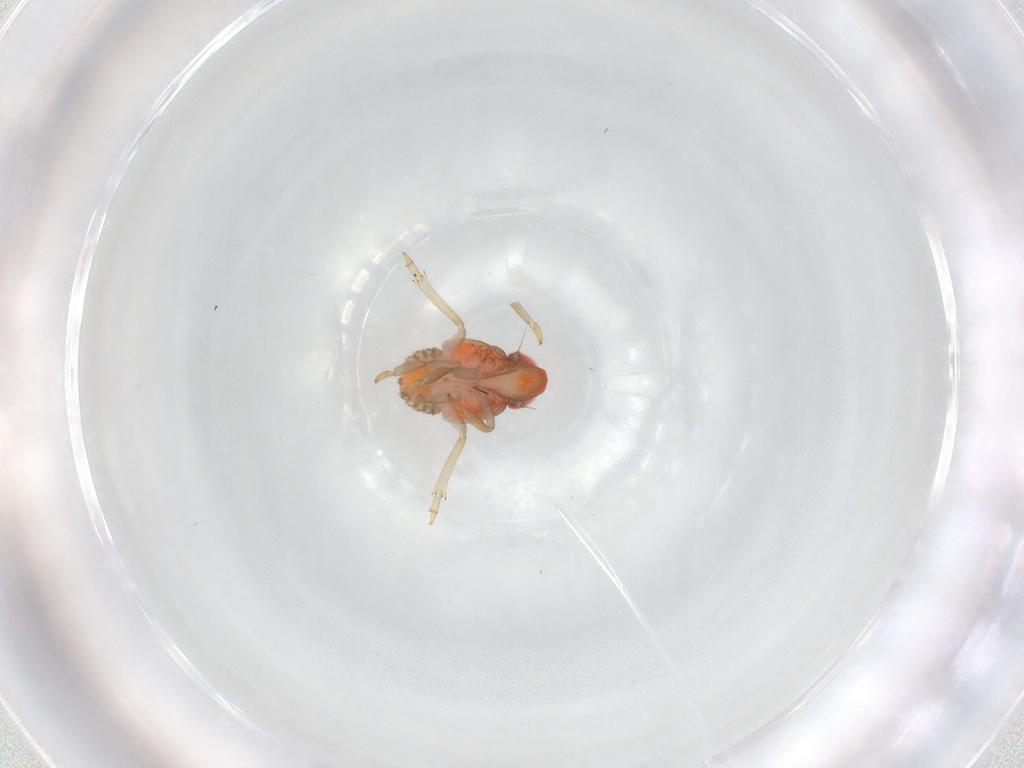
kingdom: Animalia
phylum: Arthropoda
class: Insecta
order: Hemiptera
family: Issidae
